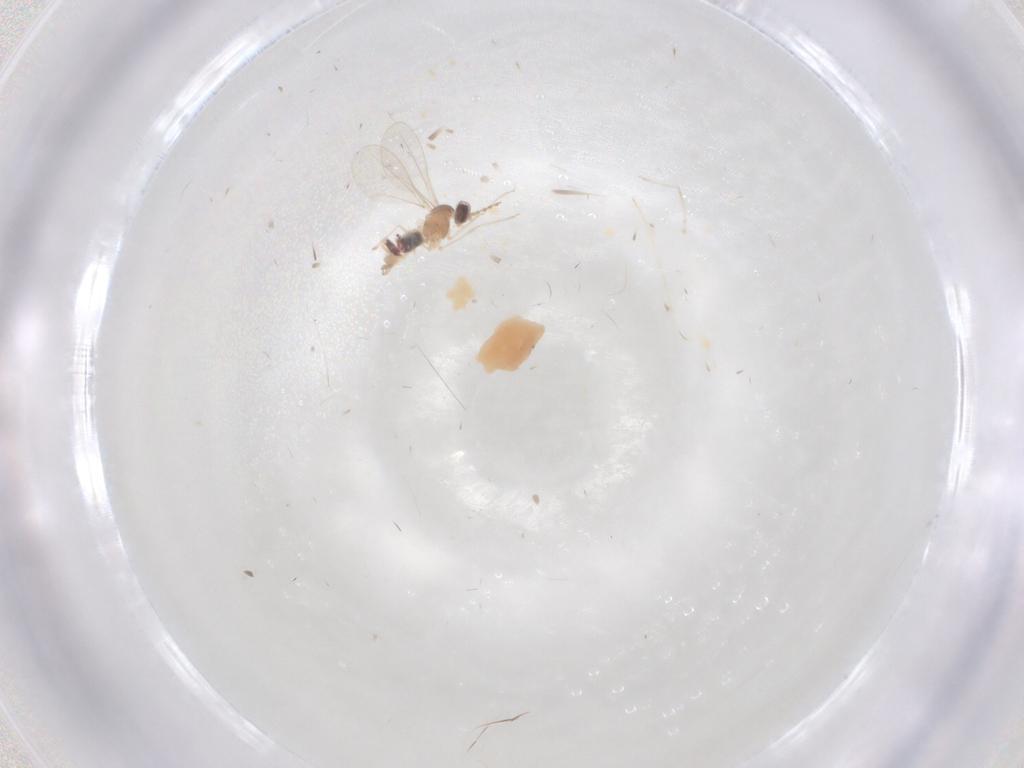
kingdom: Animalia
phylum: Arthropoda
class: Insecta
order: Diptera
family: Chaoboridae
